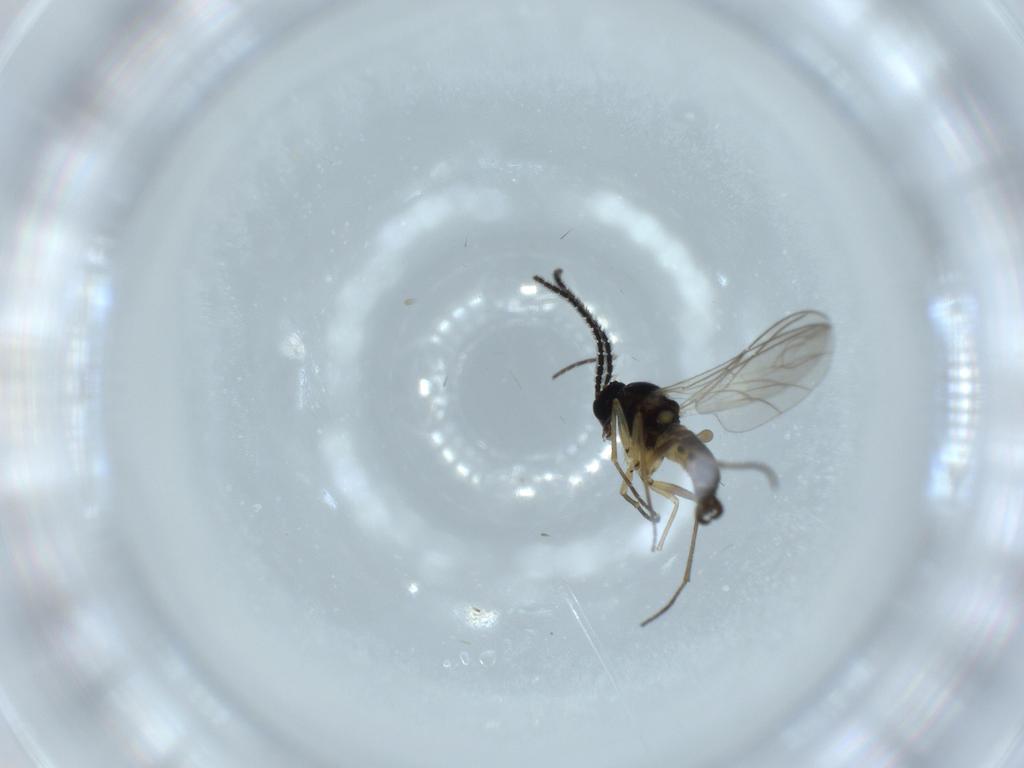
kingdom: Animalia
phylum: Arthropoda
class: Insecta
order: Diptera
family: Sciaridae
